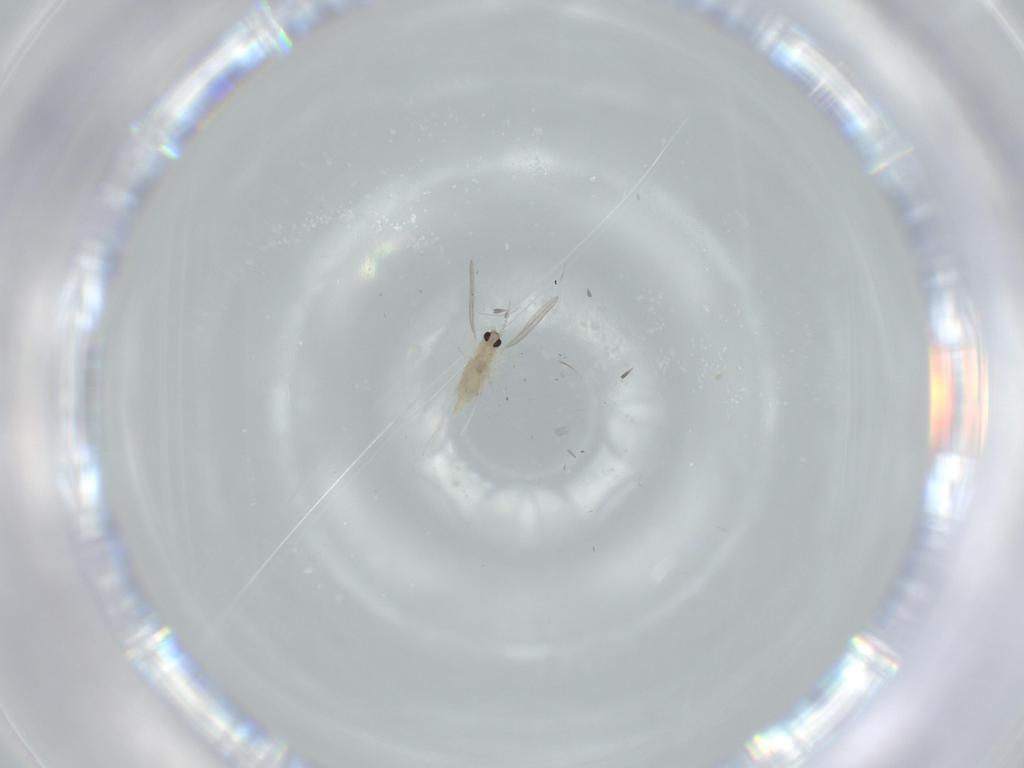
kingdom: Animalia
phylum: Arthropoda
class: Insecta
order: Diptera
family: Cecidomyiidae
